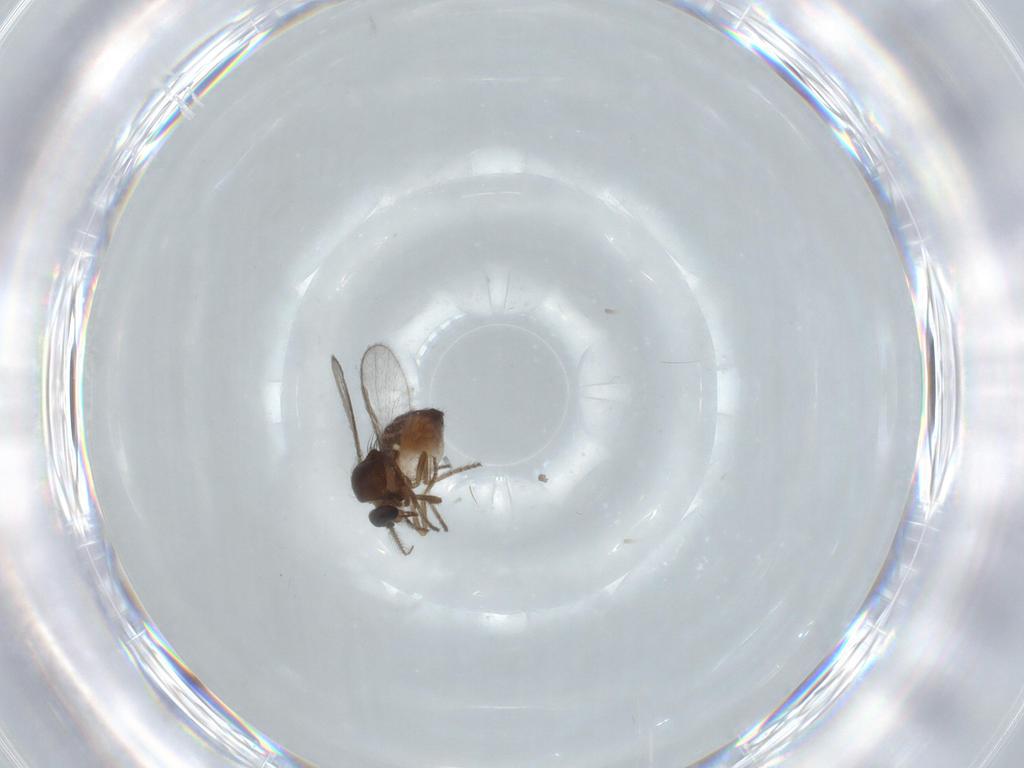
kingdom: Animalia
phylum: Arthropoda
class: Insecta
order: Diptera
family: Ceratopogonidae
